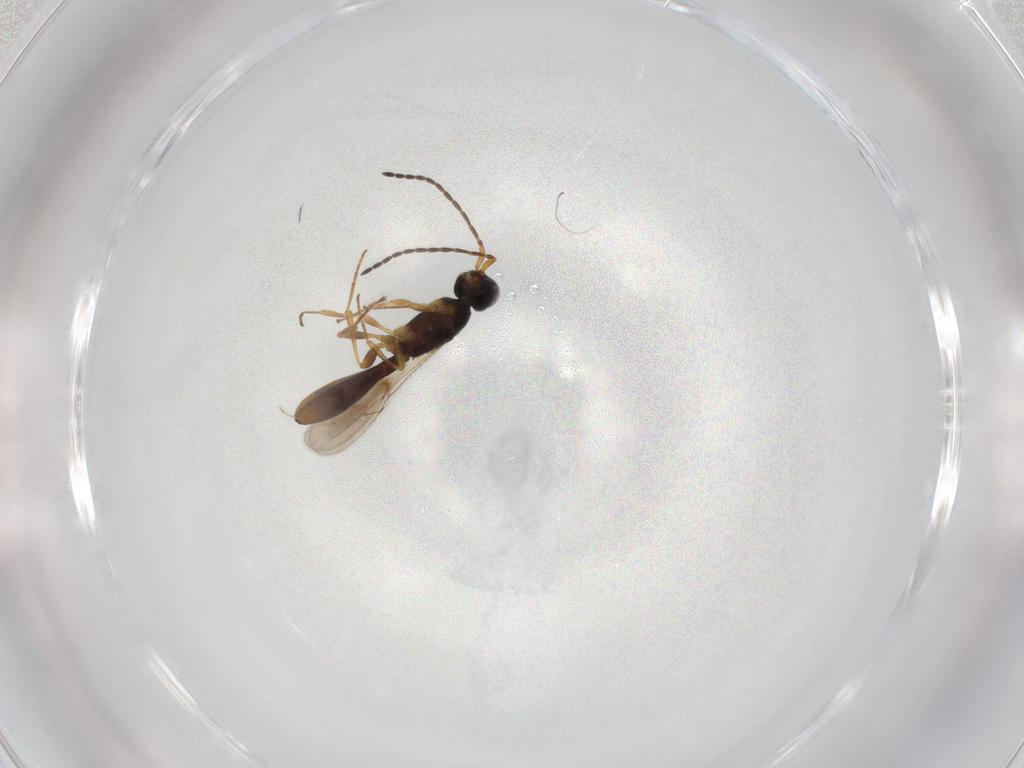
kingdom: Animalia
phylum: Arthropoda
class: Insecta
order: Hymenoptera
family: Scelionidae
